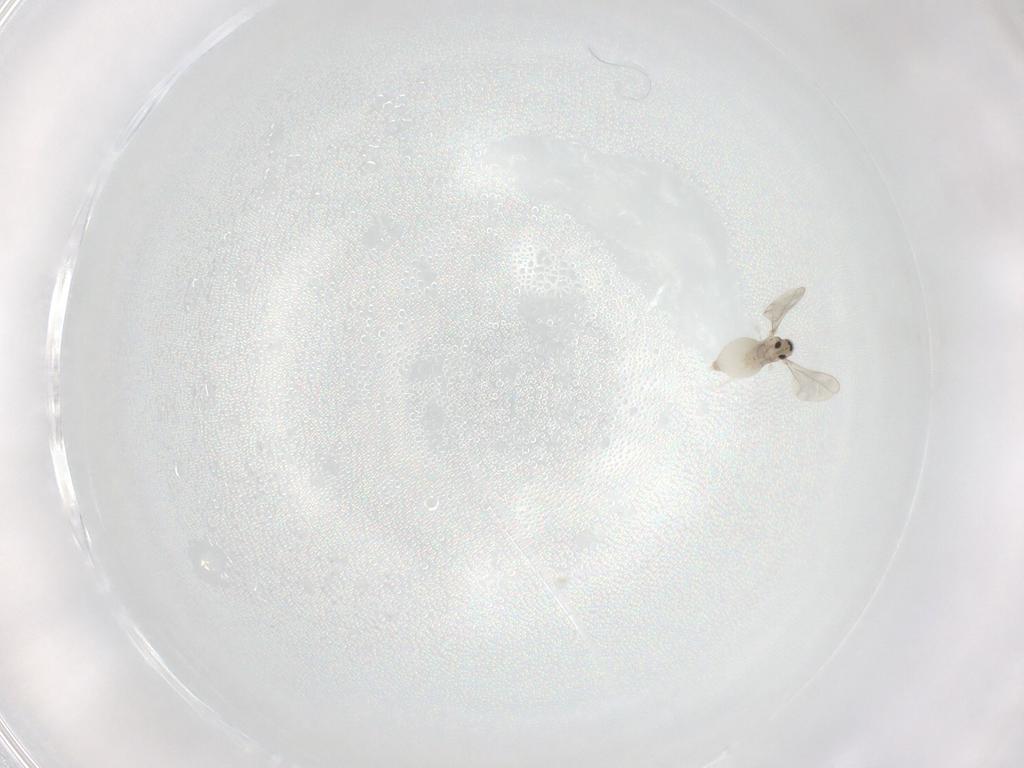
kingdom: Animalia
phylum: Arthropoda
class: Insecta
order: Diptera
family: Cecidomyiidae
